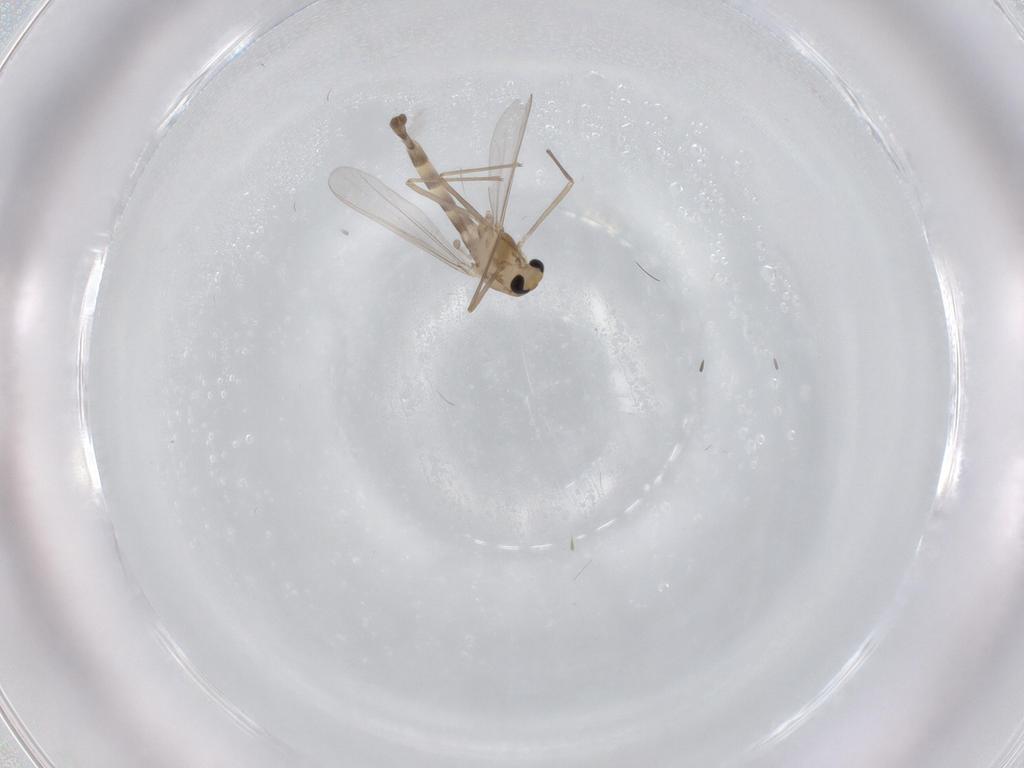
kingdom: Animalia
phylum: Arthropoda
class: Insecta
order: Diptera
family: Chironomidae
